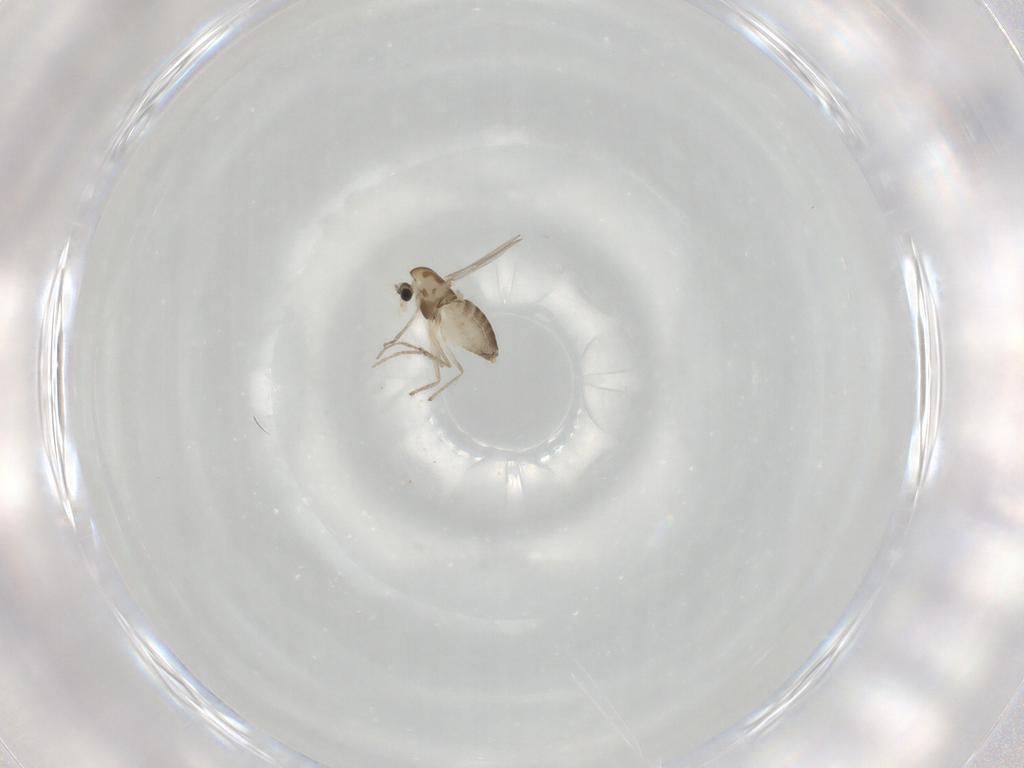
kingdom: Animalia
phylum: Arthropoda
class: Insecta
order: Diptera
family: Chironomidae
